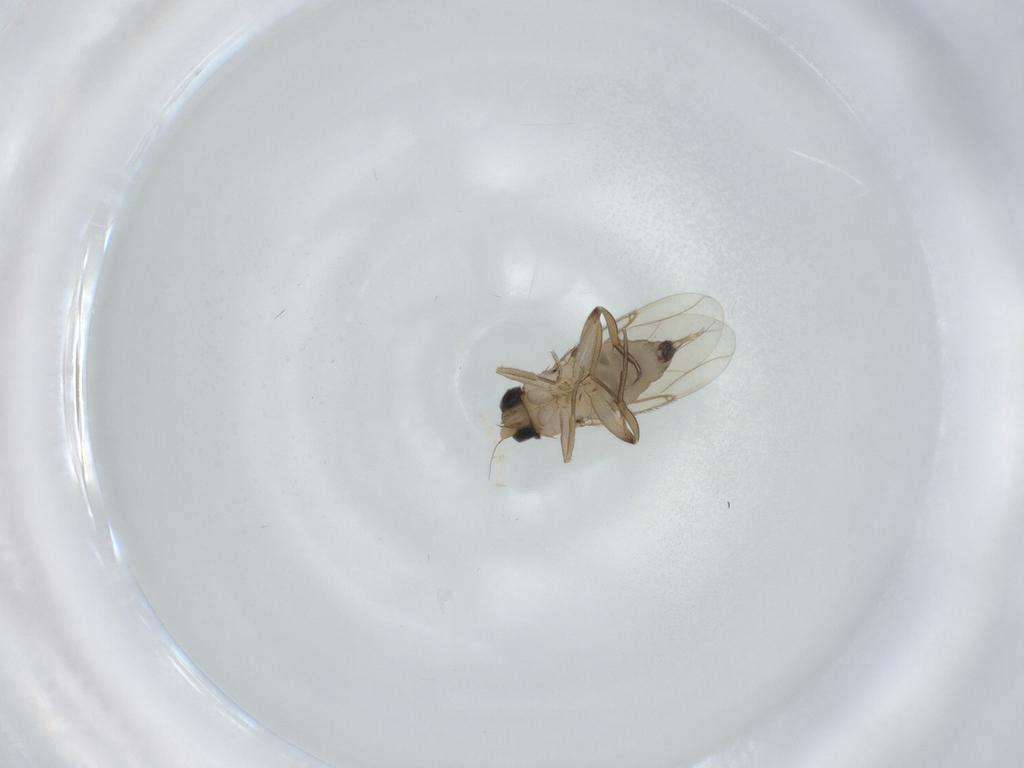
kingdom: Animalia
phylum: Arthropoda
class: Insecta
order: Diptera
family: Phoridae
